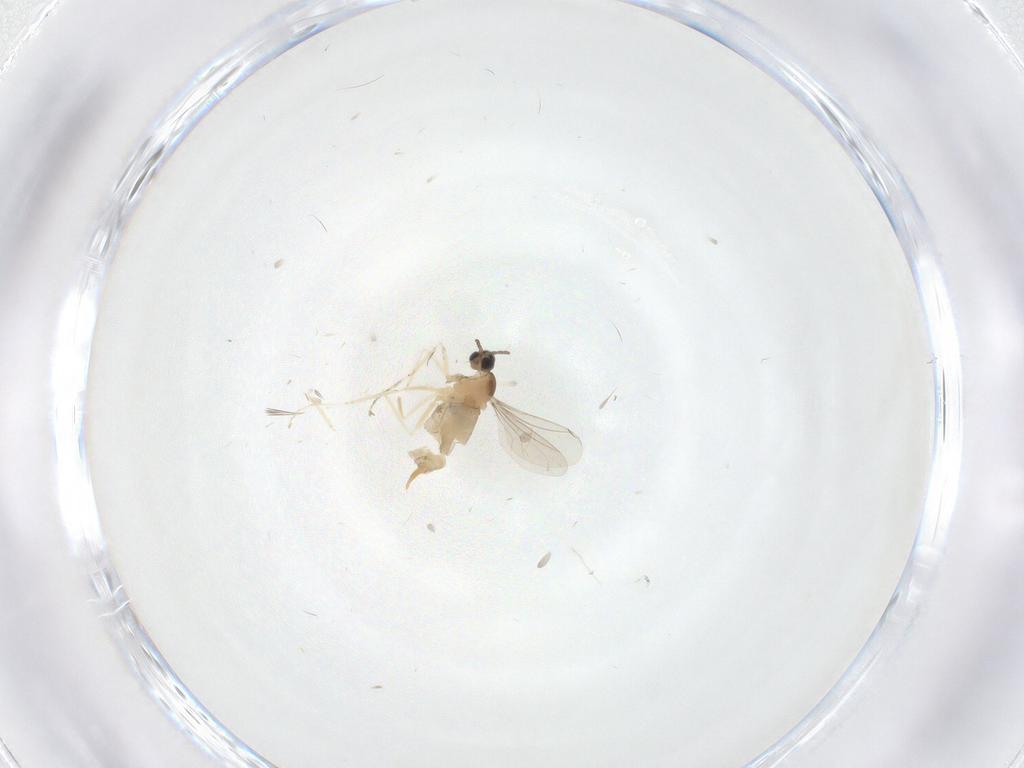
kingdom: Animalia
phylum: Arthropoda
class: Insecta
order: Diptera
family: Cecidomyiidae
